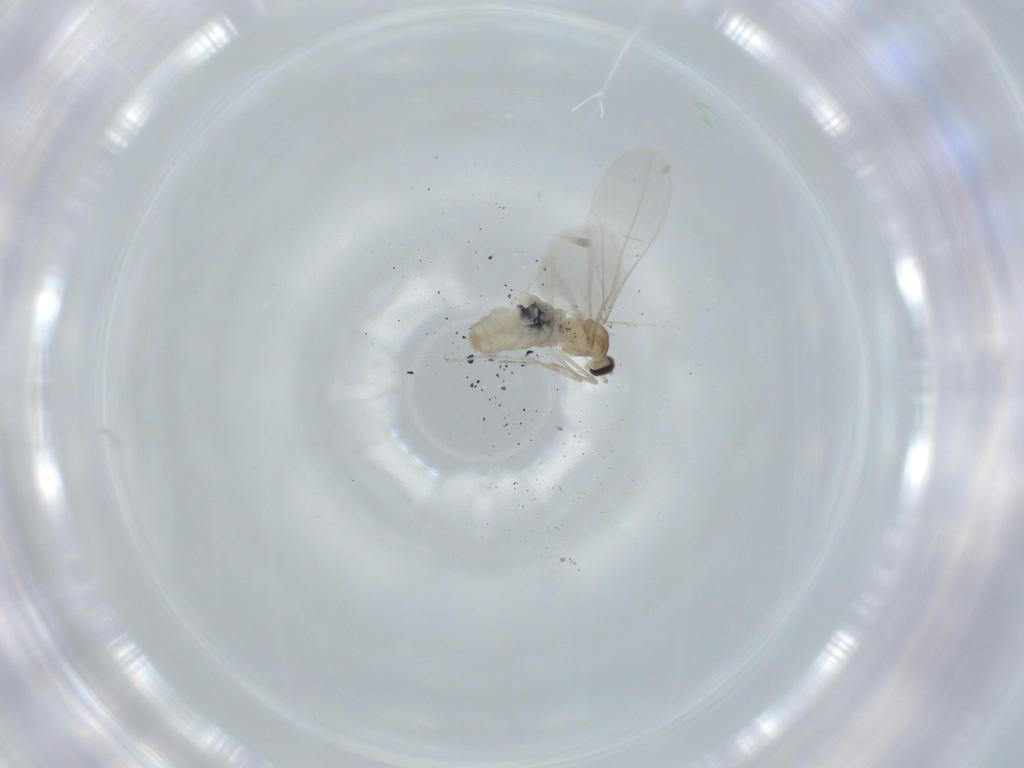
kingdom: Animalia
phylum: Arthropoda
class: Insecta
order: Diptera
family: Cecidomyiidae
